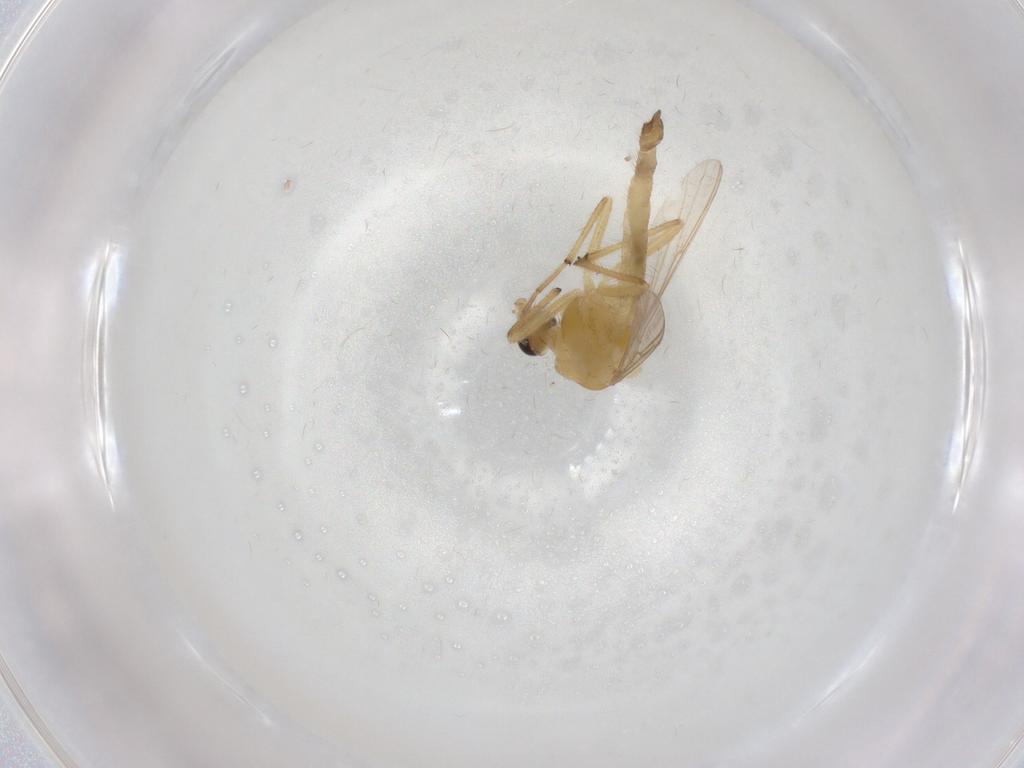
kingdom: Animalia
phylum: Arthropoda
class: Insecta
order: Diptera
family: Chironomidae
